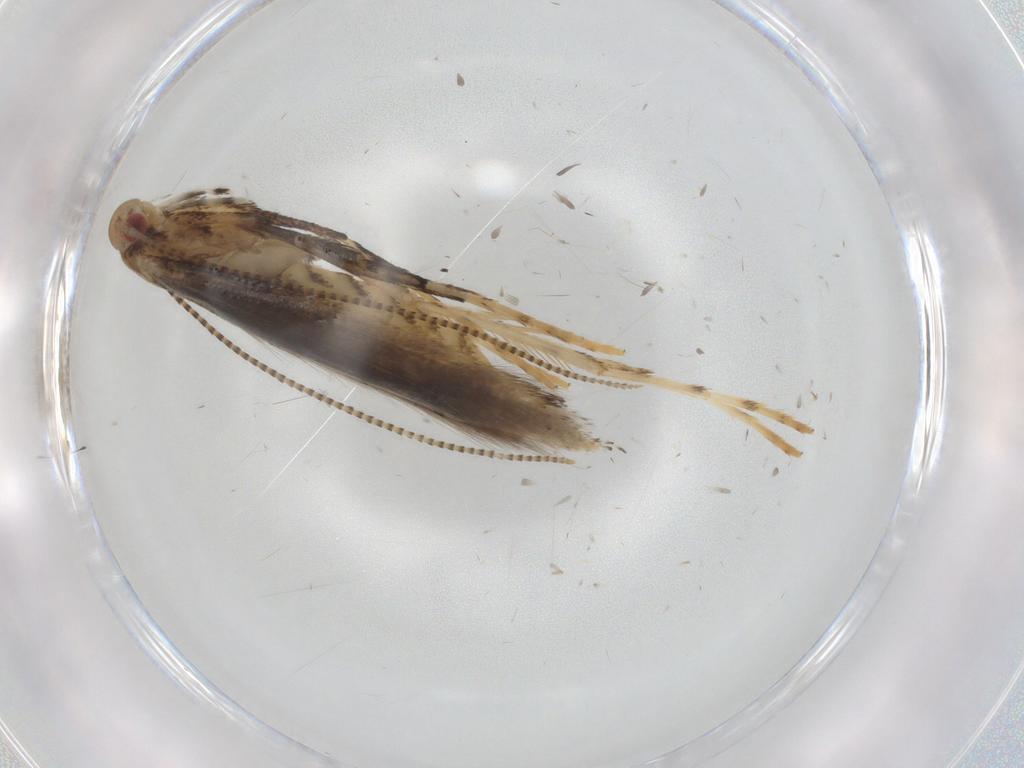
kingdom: Animalia
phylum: Arthropoda
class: Insecta
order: Lepidoptera
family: Gracillariidae
